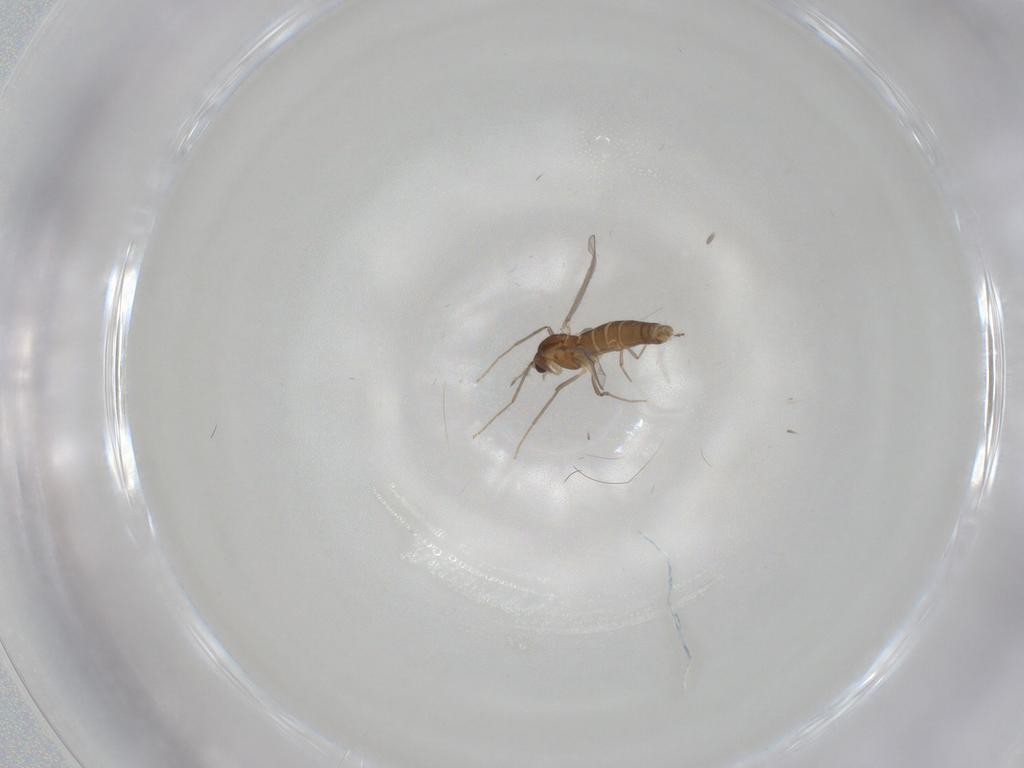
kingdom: Animalia
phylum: Arthropoda
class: Insecta
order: Diptera
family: Chironomidae
